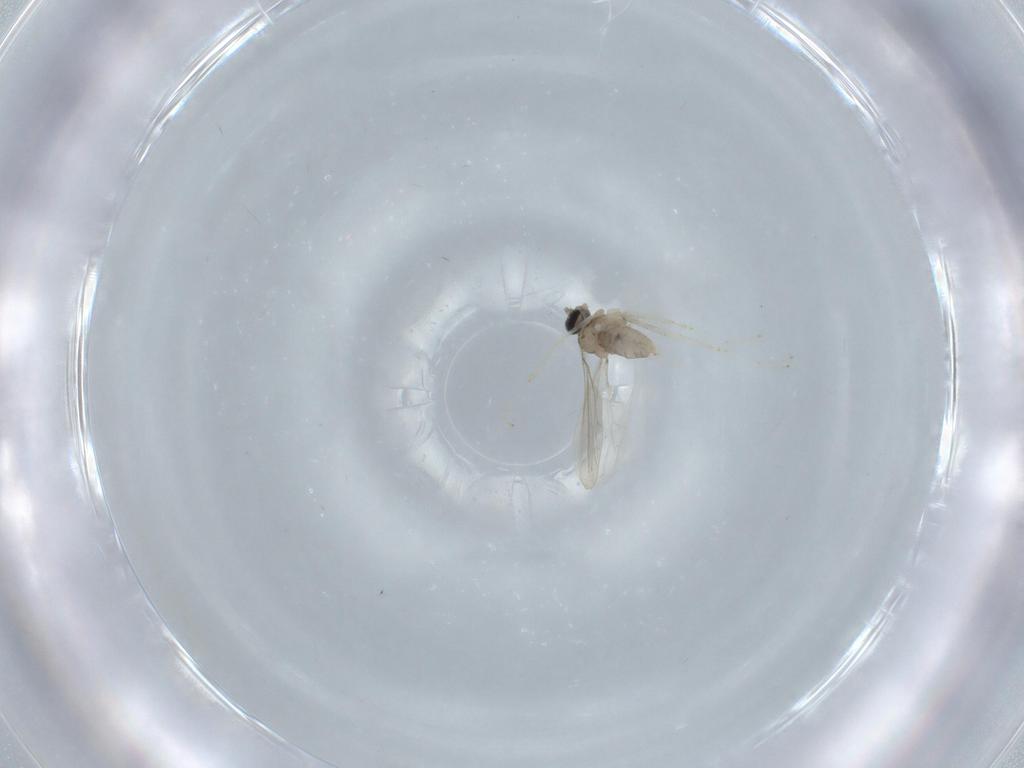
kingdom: Animalia
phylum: Arthropoda
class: Insecta
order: Diptera
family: Cecidomyiidae
